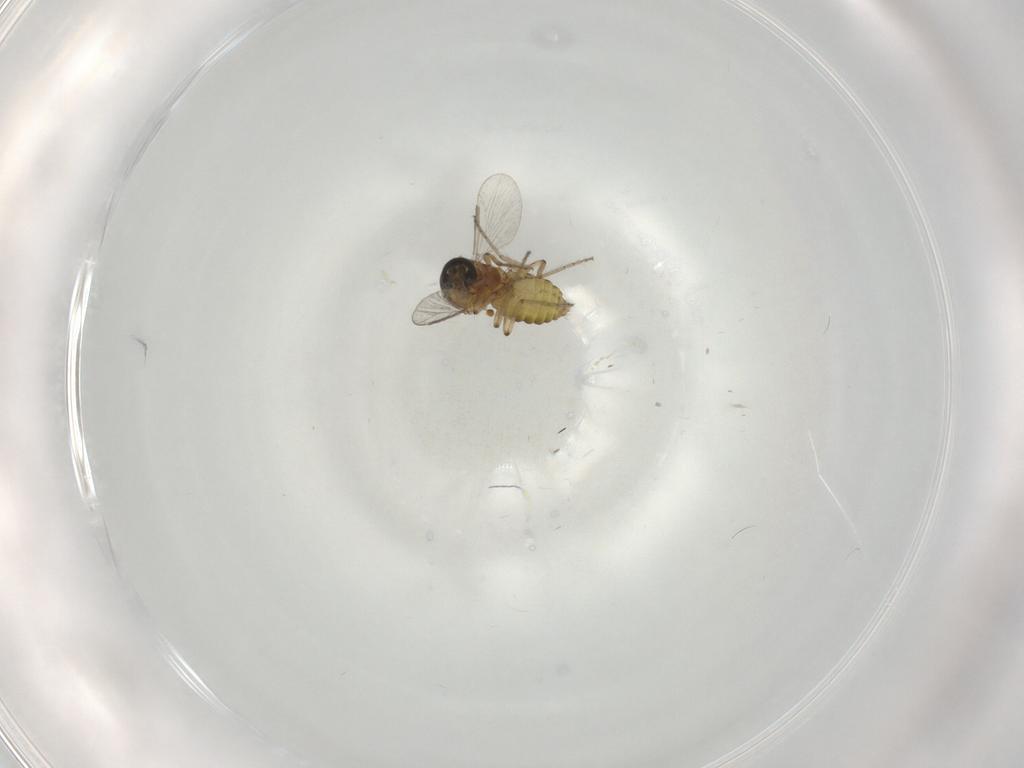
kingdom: Animalia
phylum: Arthropoda
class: Insecta
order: Diptera
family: Ceratopogonidae
